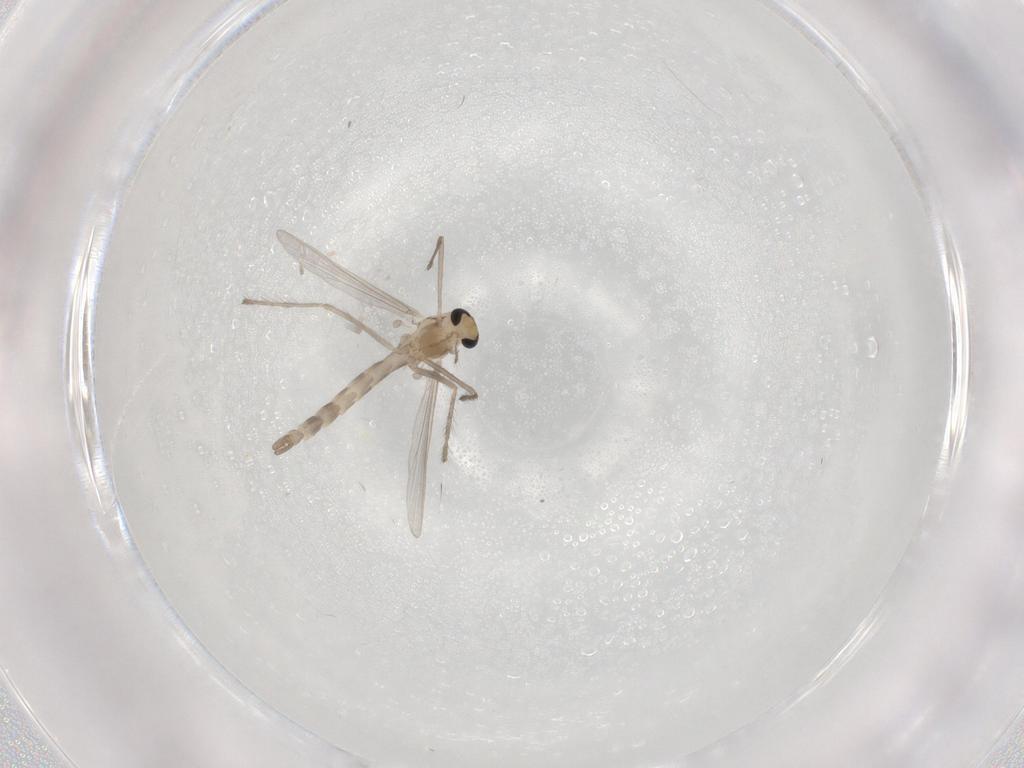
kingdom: Animalia
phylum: Arthropoda
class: Insecta
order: Diptera
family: Chironomidae
